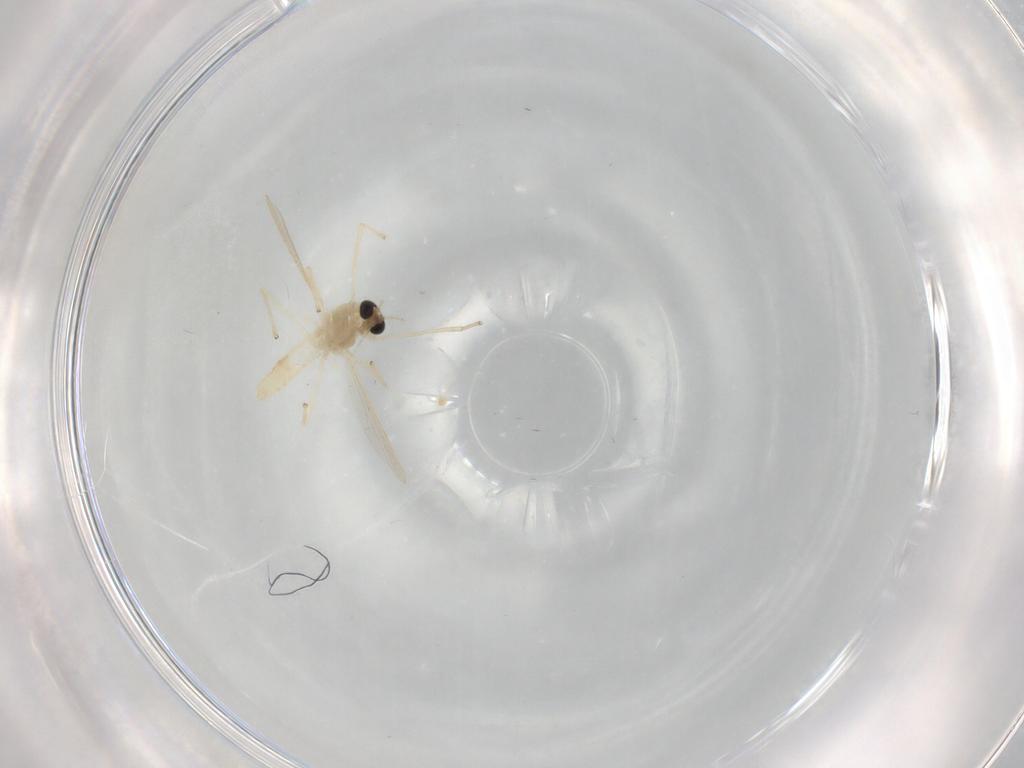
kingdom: Animalia
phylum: Arthropoda
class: Insecta
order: Diptera
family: Chironomidae
